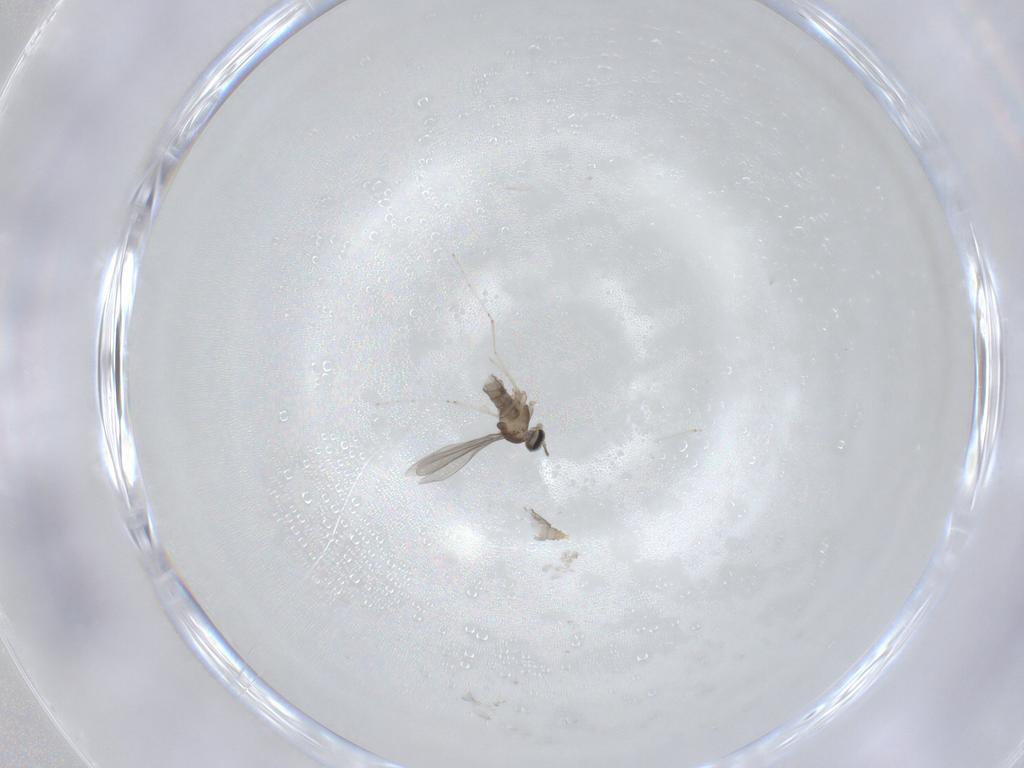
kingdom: Animalia
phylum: Arthropoda
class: Insecta
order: Diptera
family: Cecidomyiidae
